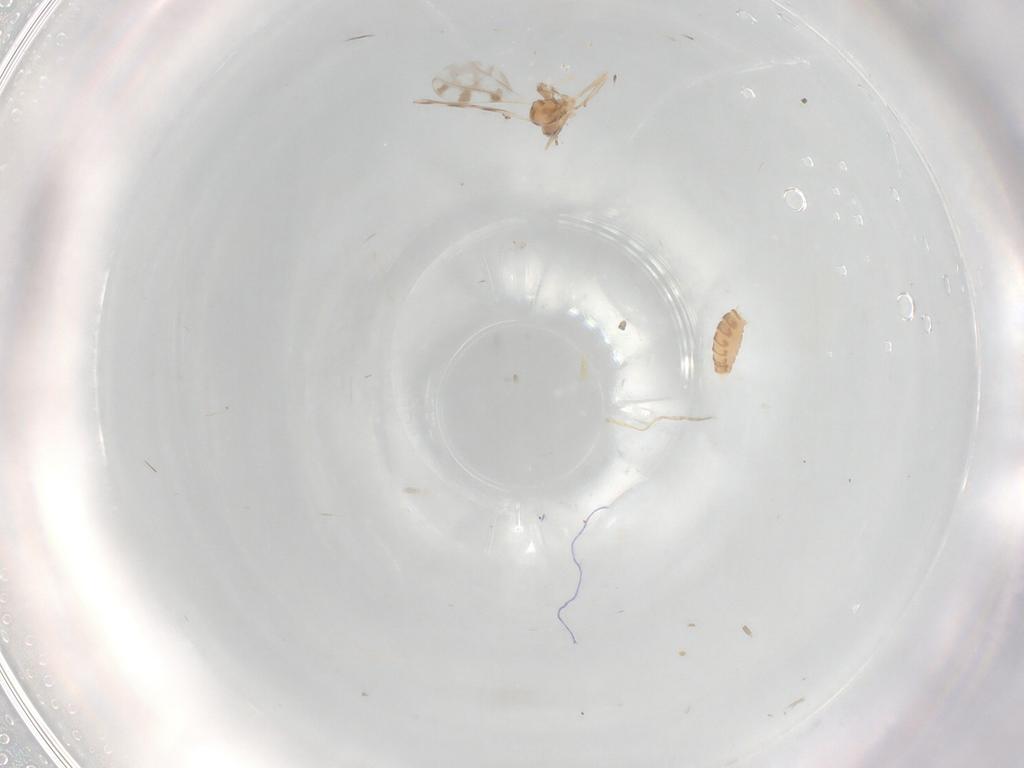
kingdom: Animalia
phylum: Arthropoda
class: Insecta
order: Diptera
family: Cecidomyiidae
